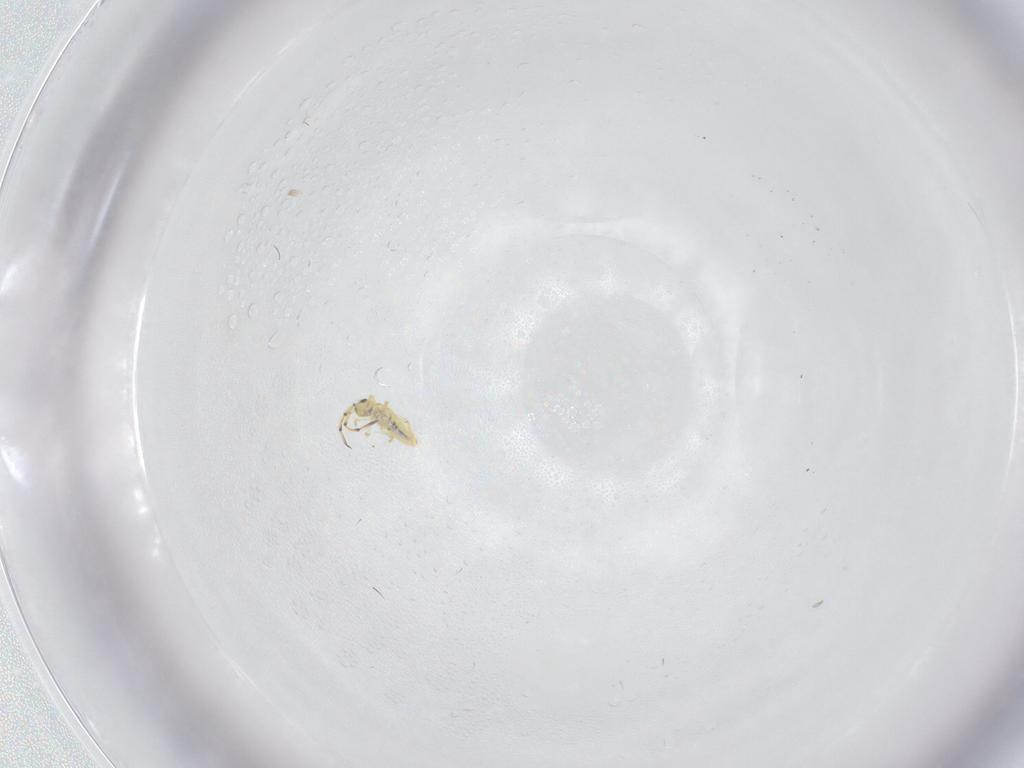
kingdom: Animalia
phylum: Arthropoda
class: Collembola
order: Entomobryomorpha
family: Paronellidae
